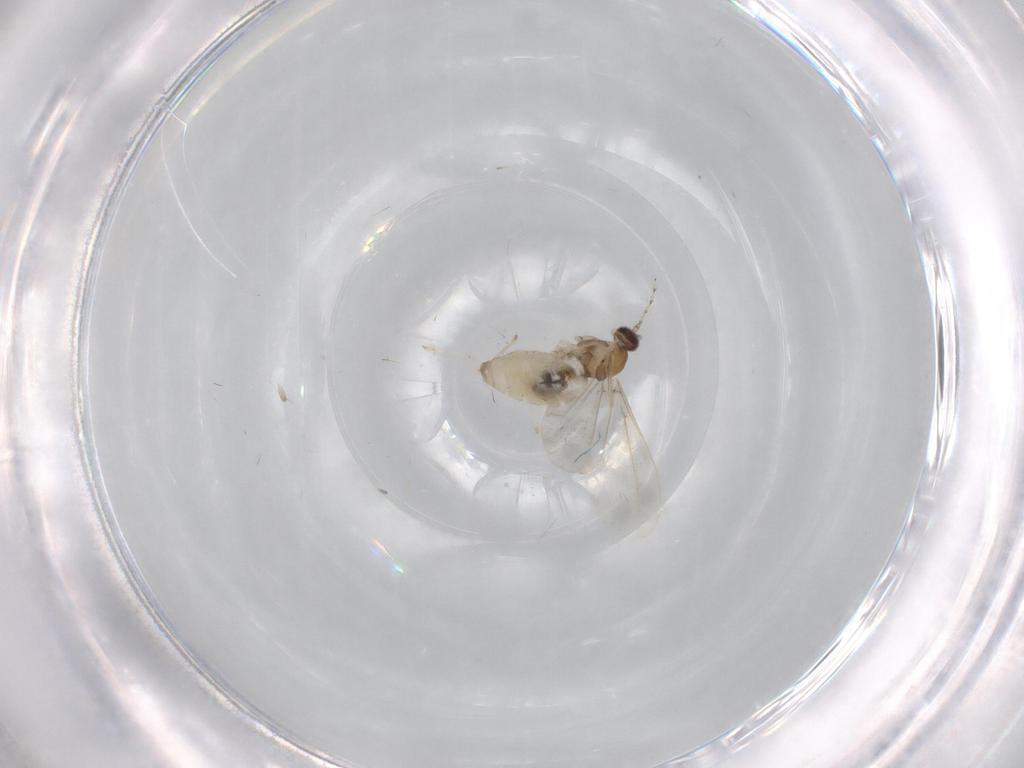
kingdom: Animalia
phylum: Arthropoda
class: Insecta
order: Diptera
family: Cecidomyiidae
